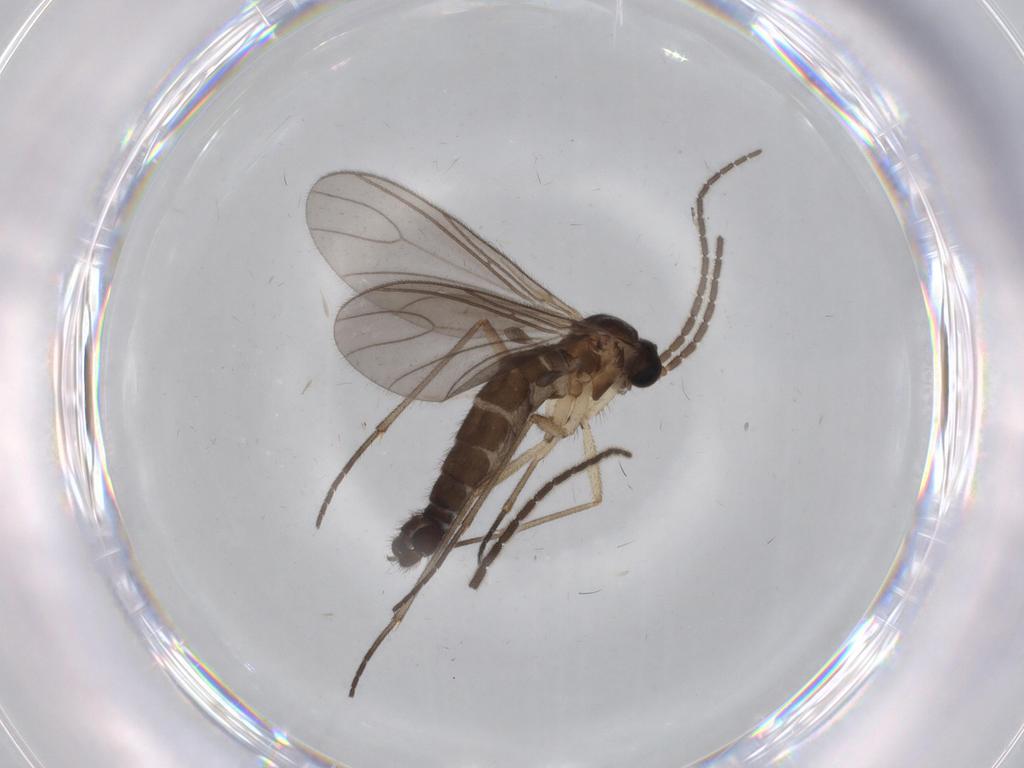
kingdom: Animalia
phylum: Arthropoda
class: Insecta
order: Diptera
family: Sciaridae
